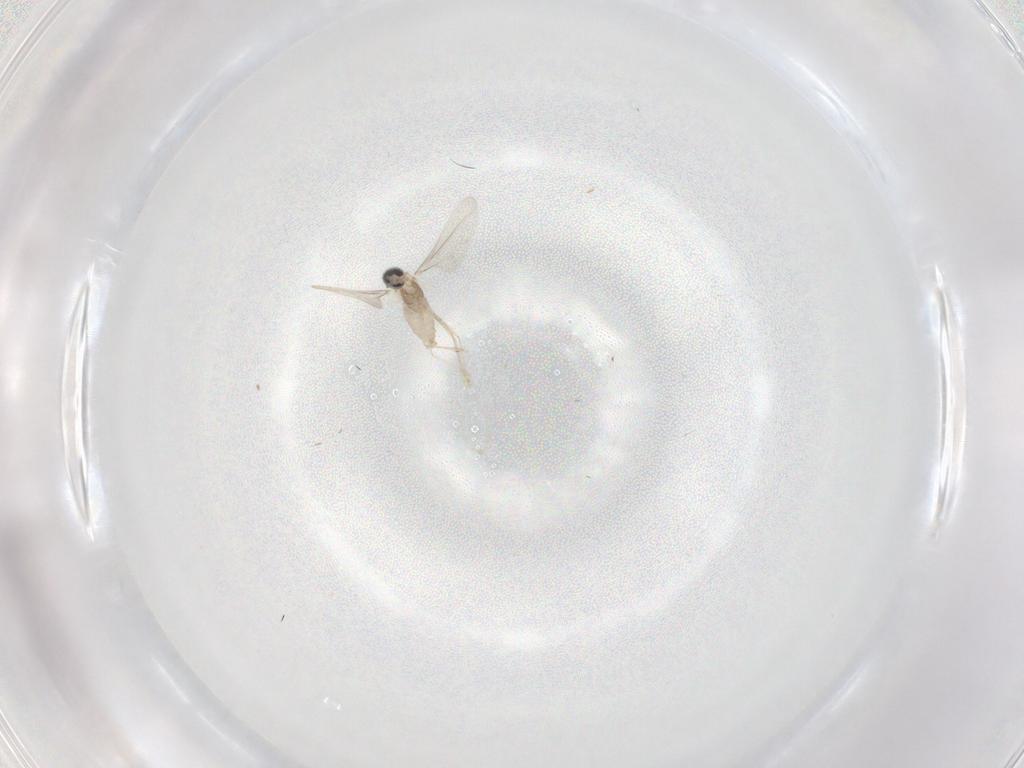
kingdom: Animalia
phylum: Arthropoda
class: Insecta
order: Diptera
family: Cecidomyiidae
